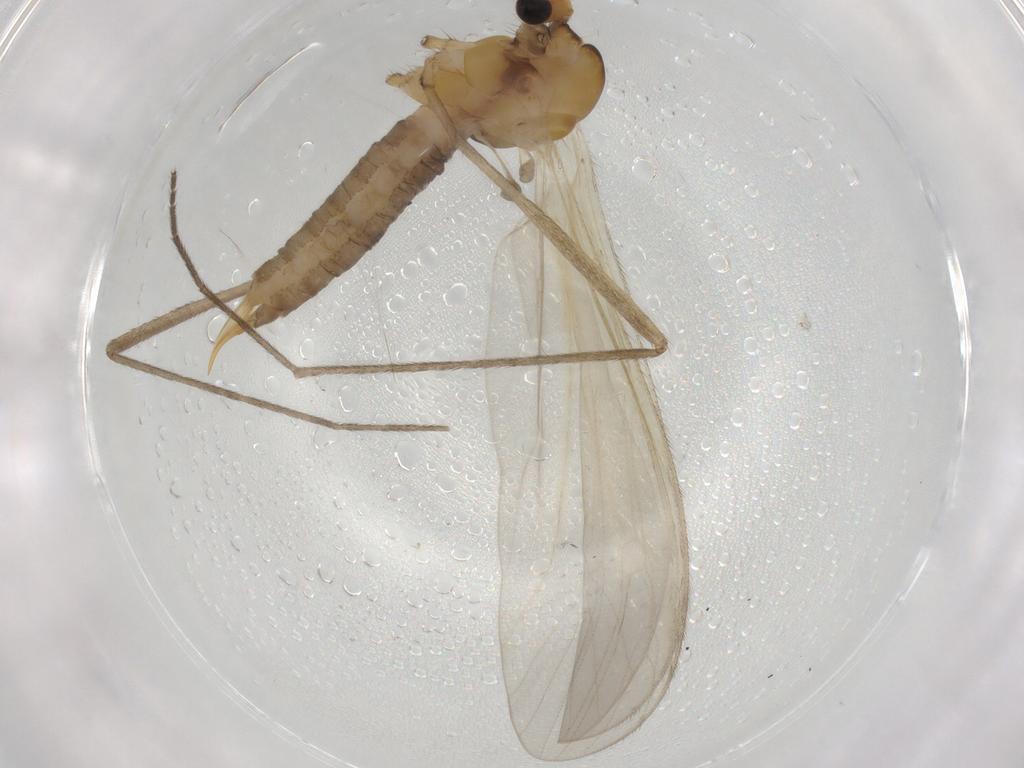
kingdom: Animalia
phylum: Arthropoda
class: Insecta
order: Diptera
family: Limoniidae
